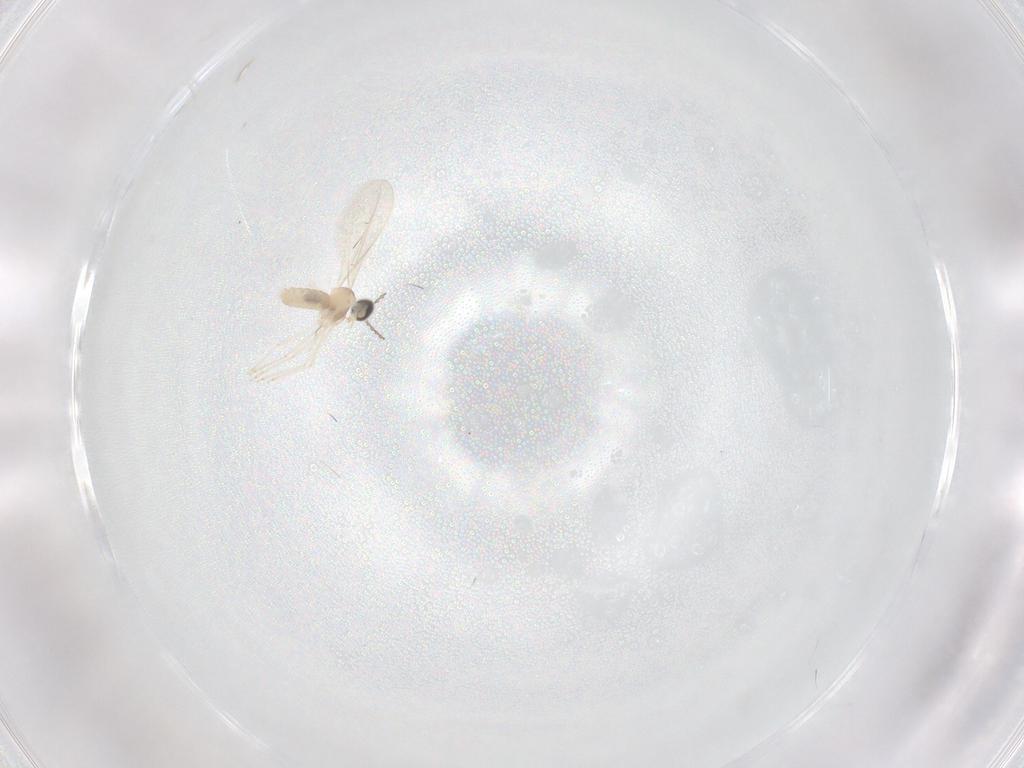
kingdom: Animalia
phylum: Arthropoda
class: Insecta
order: Diptera
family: Cecidomyiidae
